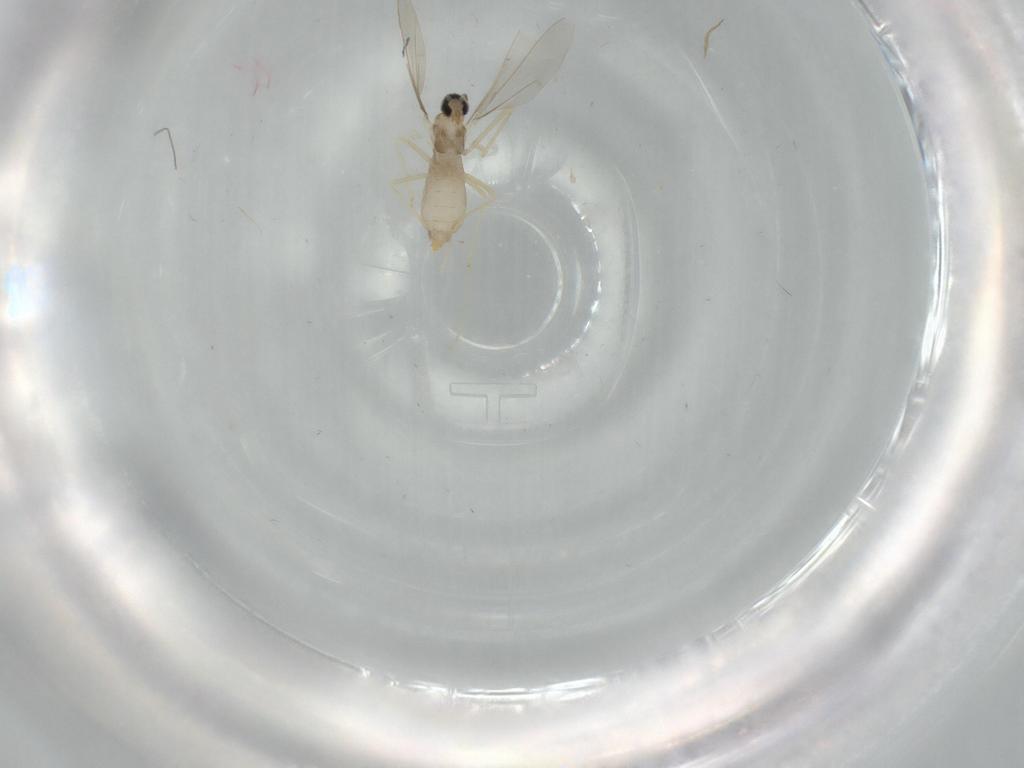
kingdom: Animalia
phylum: Arthropoda
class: Insecta
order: Diptera
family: Cecidomyiidae
